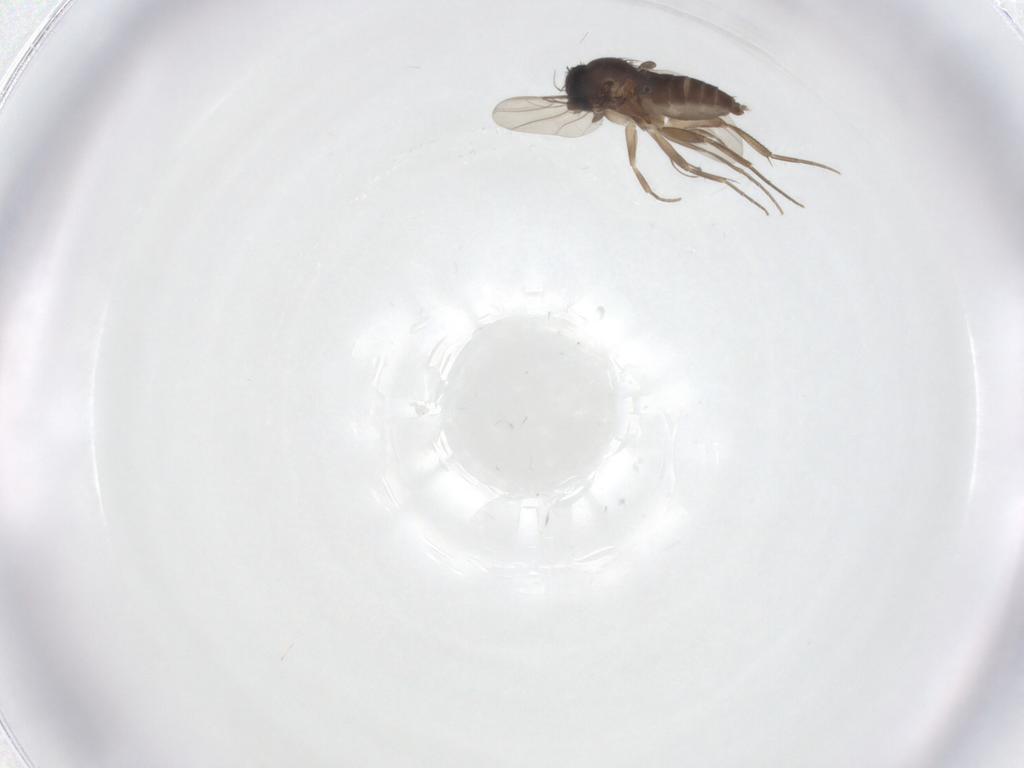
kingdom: Animalia
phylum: Arthropoda
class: Insecta
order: Diptera
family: Phoridae
